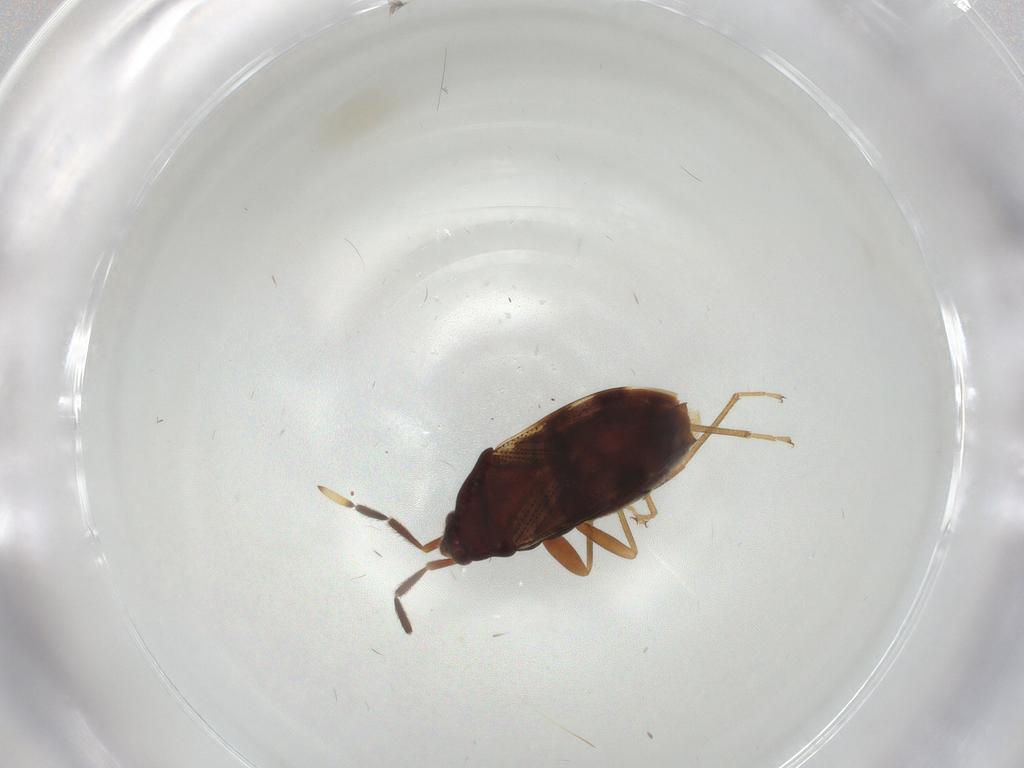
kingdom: Animalia
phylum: Arthropoda
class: Insecta
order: Hemiptera
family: Rhyparochromidae
